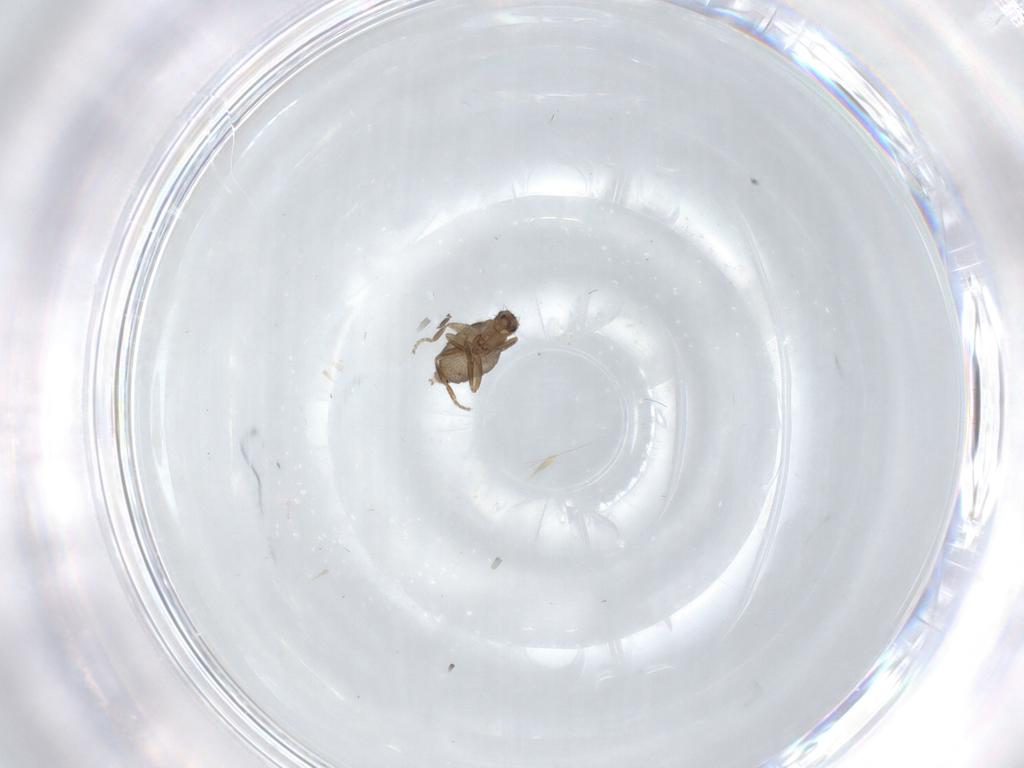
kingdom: Animalia
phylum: Arthropoda
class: Insecta
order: Diptera
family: Phoridae
